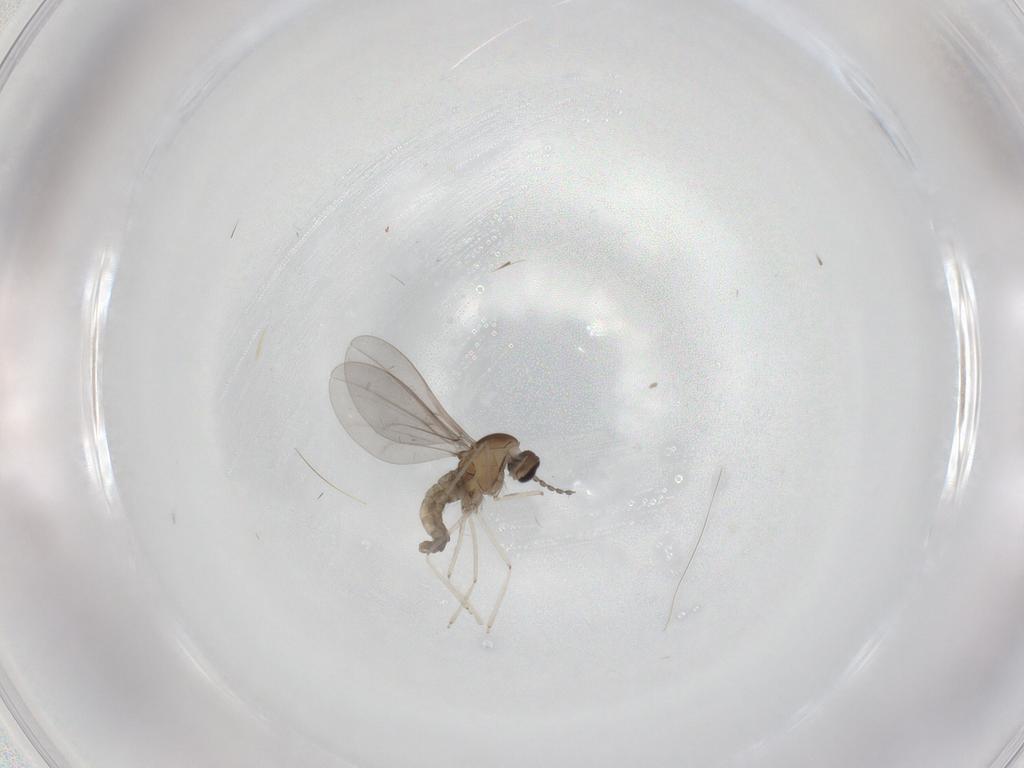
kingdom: Animalia
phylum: Arthropoda
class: Insecta
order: Diptera
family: Cecidomyiidae
